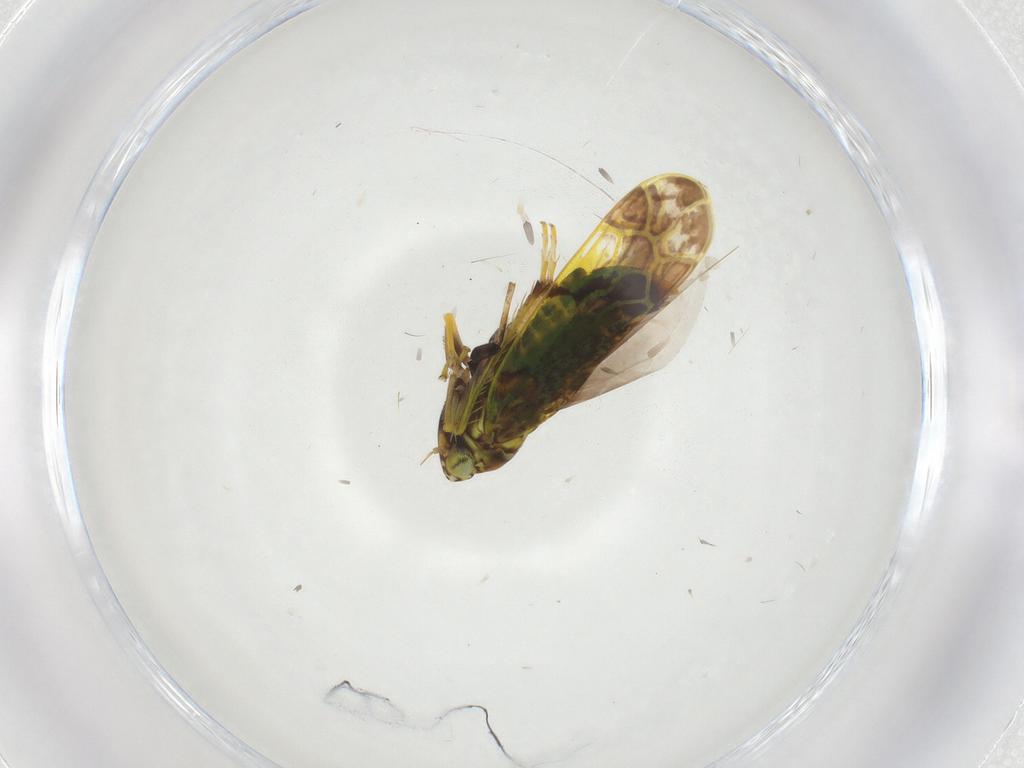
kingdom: Animalia
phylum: Arthropoda
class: Insecta
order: Hemiptera
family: Cicadellidae
